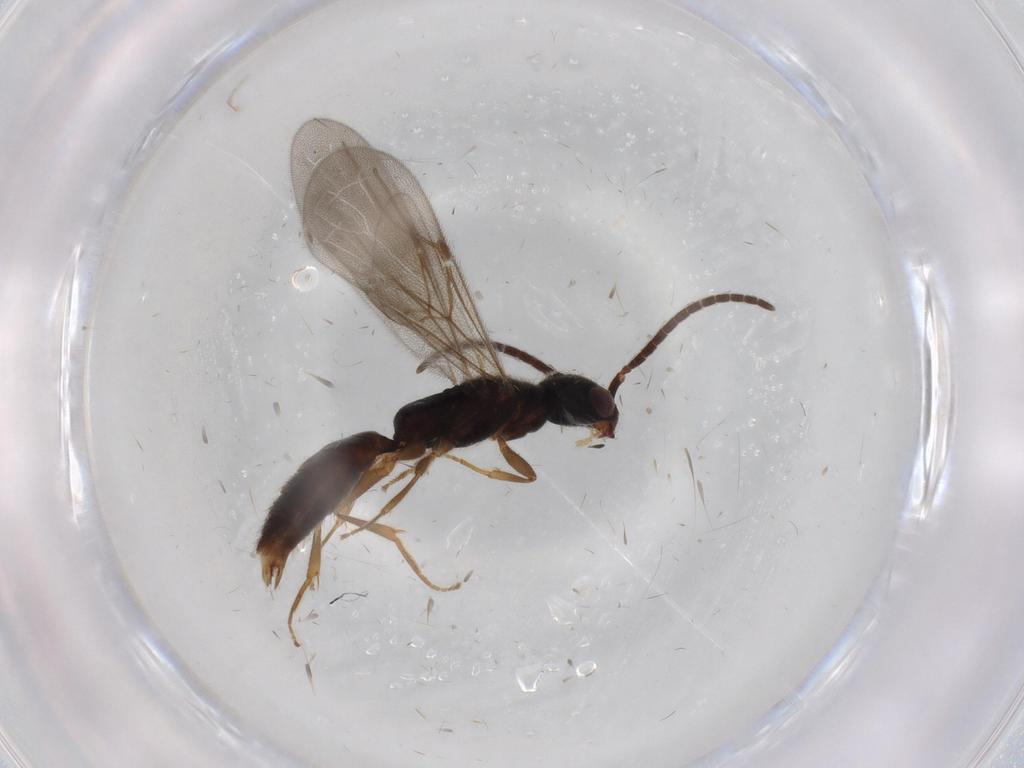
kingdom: Animalia
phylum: Arthropoda
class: Insecta
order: Hymenoptera
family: Bethylidae
